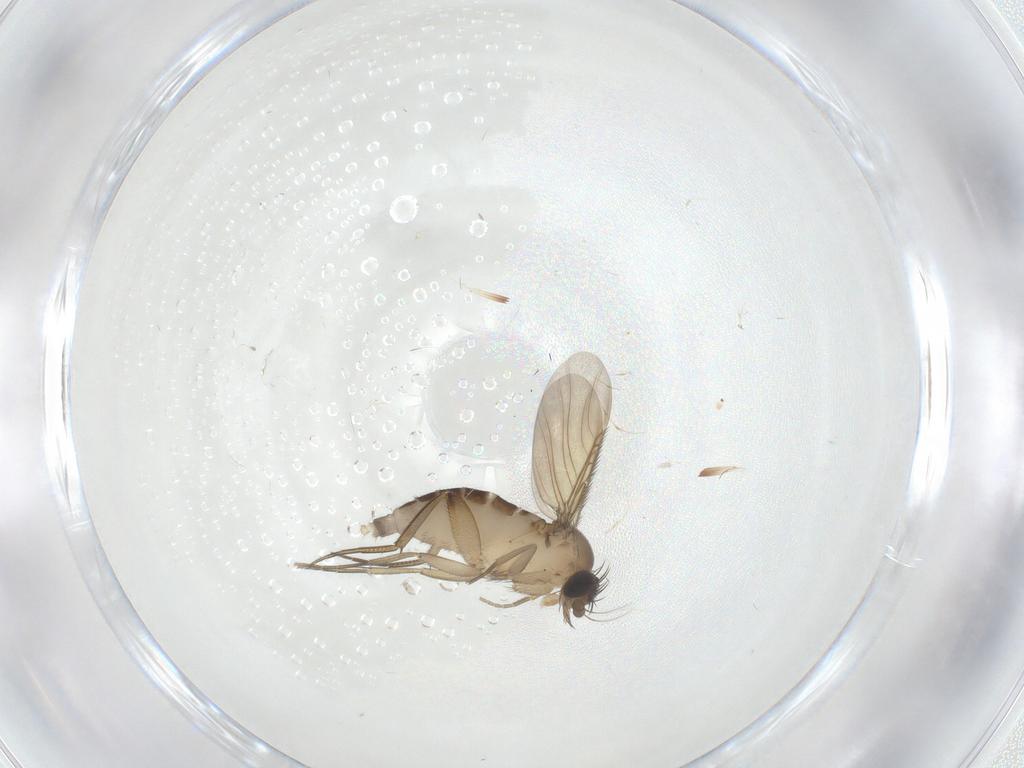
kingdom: Animalia
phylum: Arthropoda
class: Insecta
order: Diptera
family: Phoridae
